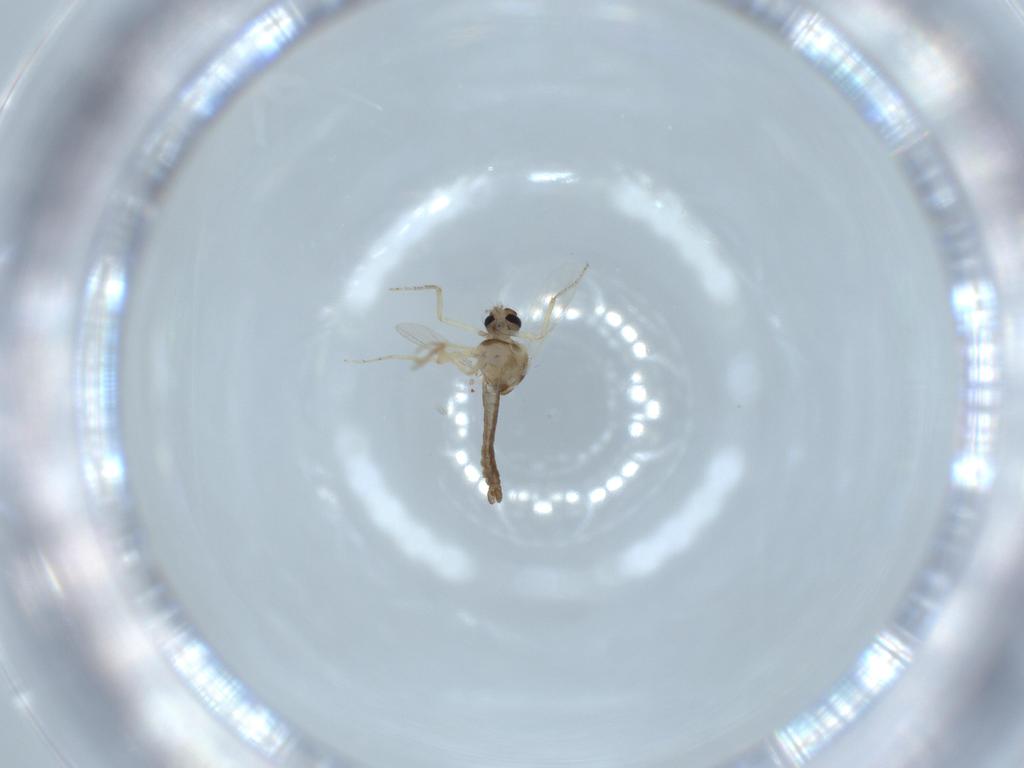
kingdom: Animalia
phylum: Arthropoda
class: Insecta
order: Diptera
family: Ceratopogonidae
